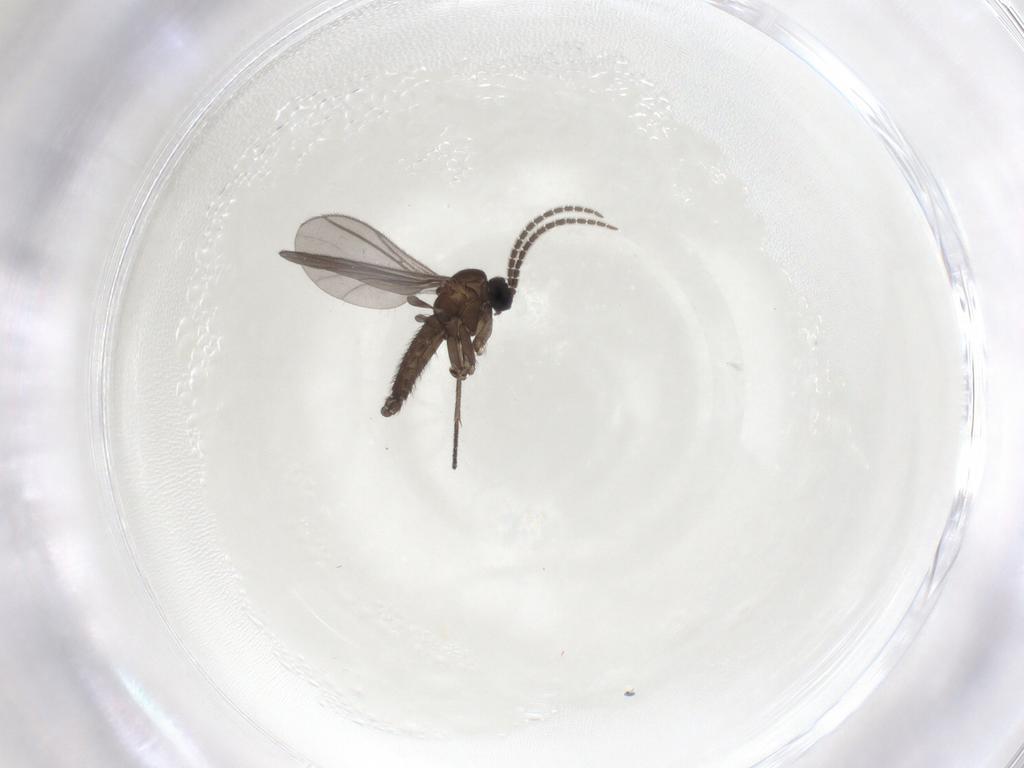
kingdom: Animalia
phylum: Arthropoda
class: Insecta
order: Diptera
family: Sciaridae
